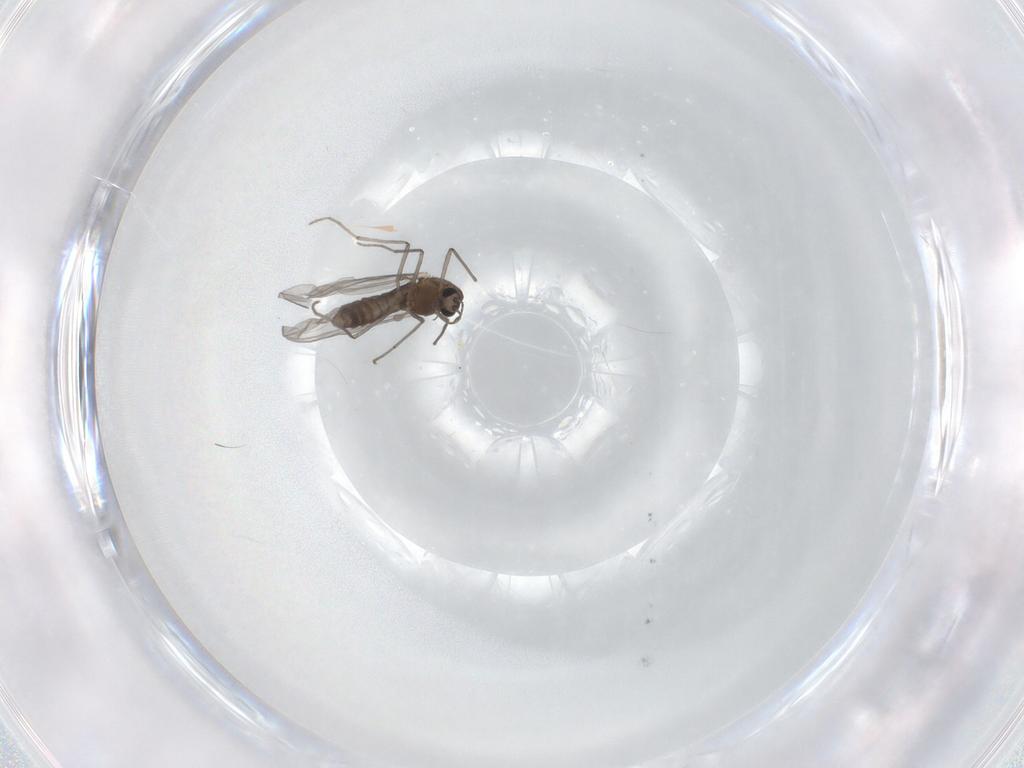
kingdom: Animalia
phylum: Arthropoda
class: Insecta
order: Diptera
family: Chironomidae
